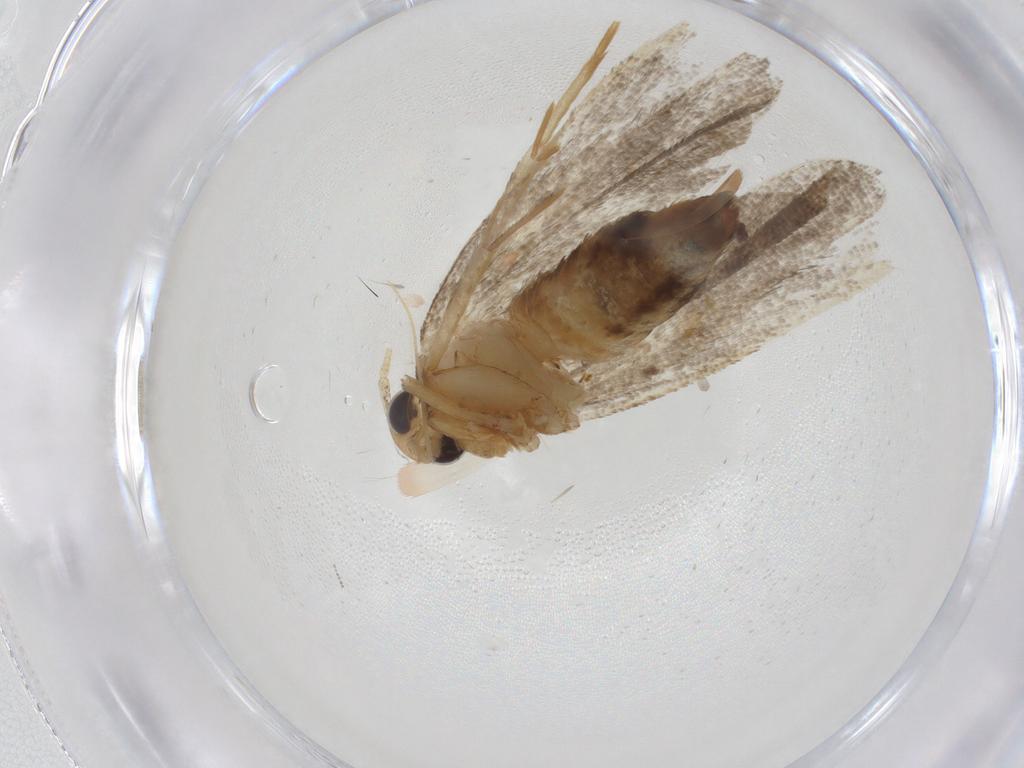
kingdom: Animalia
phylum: Arthropoda
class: Insecta
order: Lepidoptera
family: Lecithoceridae
